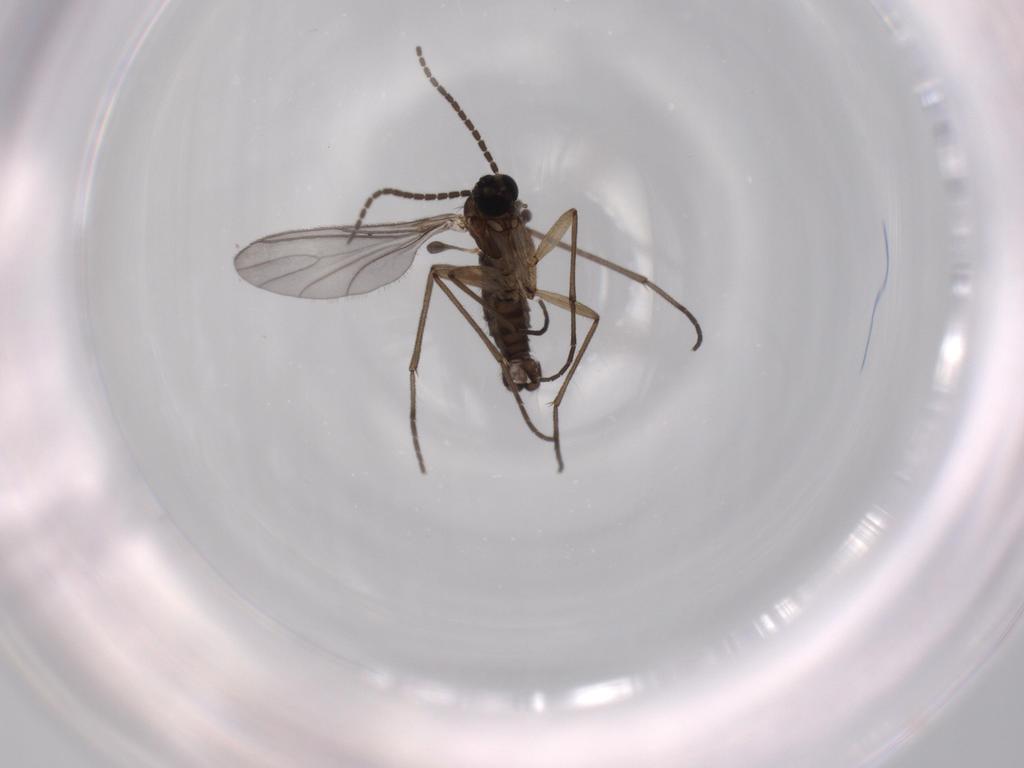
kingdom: Animalia
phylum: Arthropoda
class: Insecta
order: Diptera
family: Sciaridae
